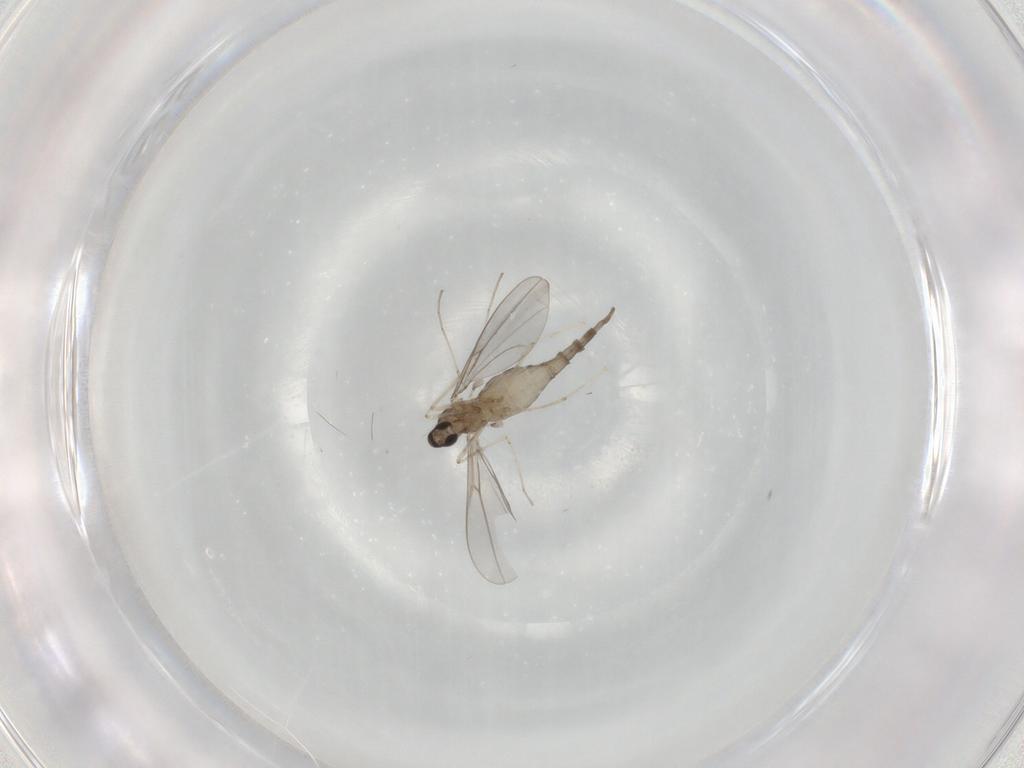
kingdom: Animalia
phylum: Arthropoda
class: Insecta
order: Diptera
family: Cecidomyiidae
